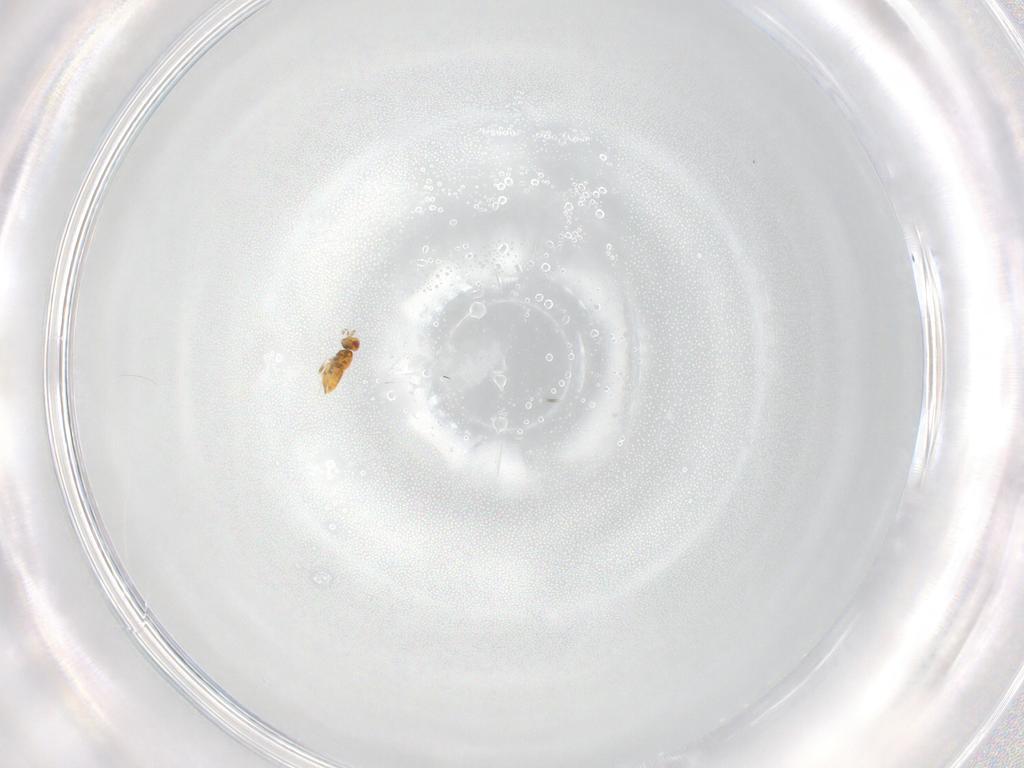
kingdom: Animalia
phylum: Arthropoda
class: Insecta
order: Hymenoptera
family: Trichogrammatidae
